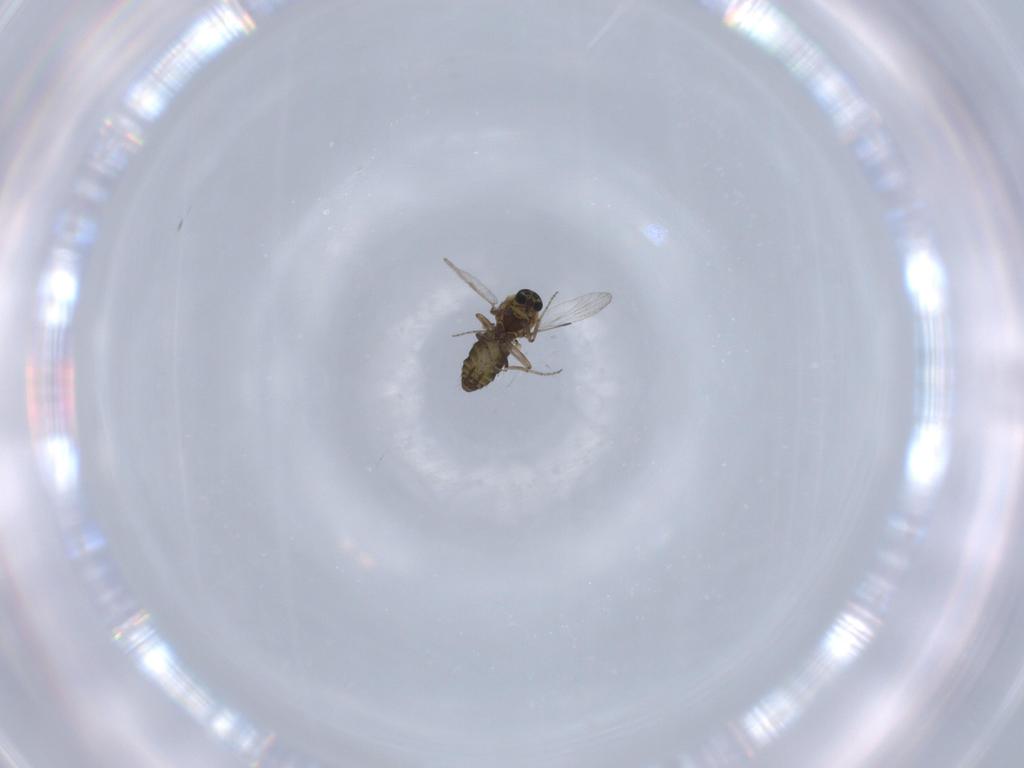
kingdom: Animalia
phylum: Arthropoda
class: Insecta
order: Diptera
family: Ceratopogonidae
